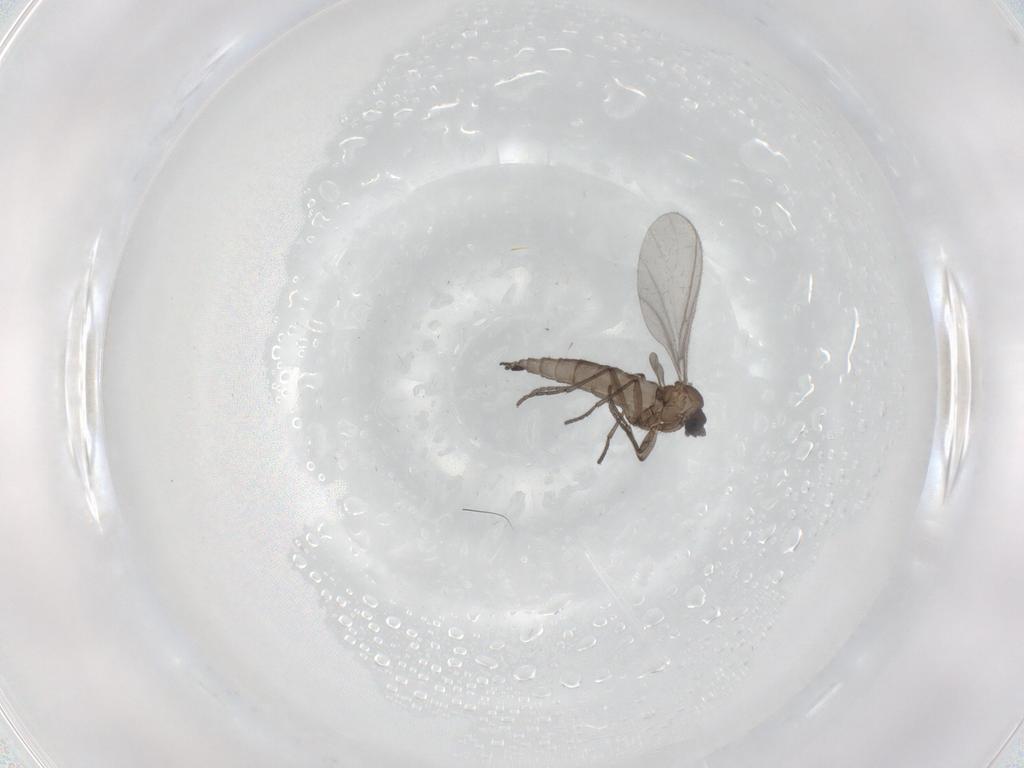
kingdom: Animalia
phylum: Arthropoda
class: Insecta
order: Diptera
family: Sciaridae
